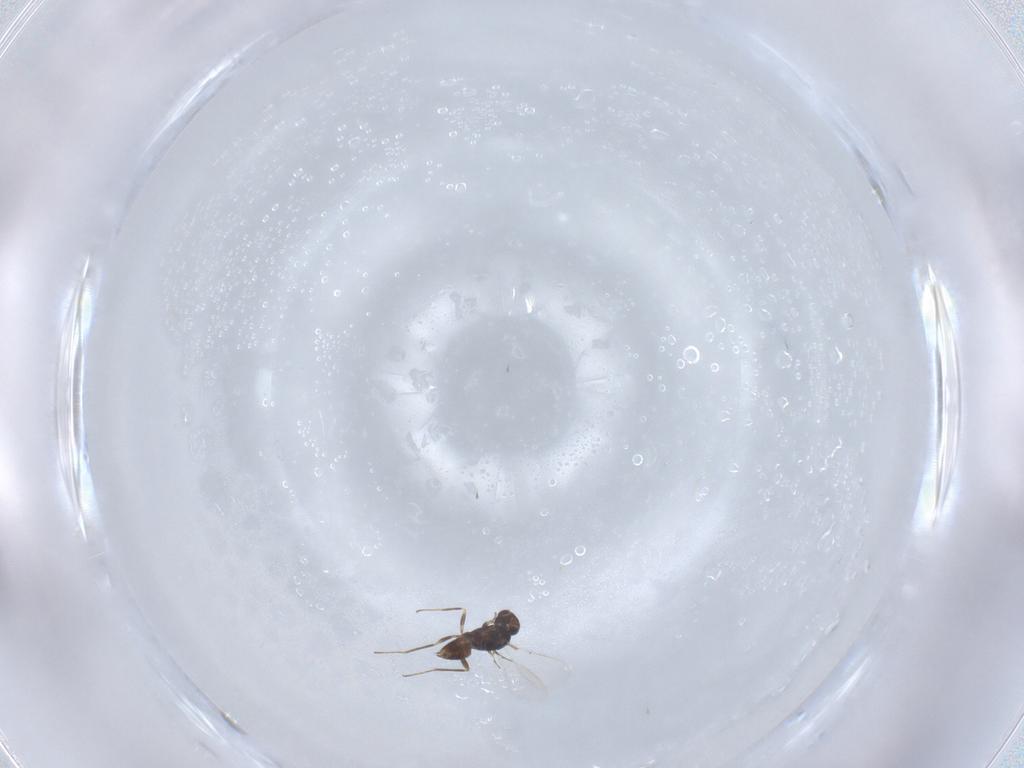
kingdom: Animalia
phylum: Arthropoda
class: Insecta
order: Hymenoptera
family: Mymaridae
